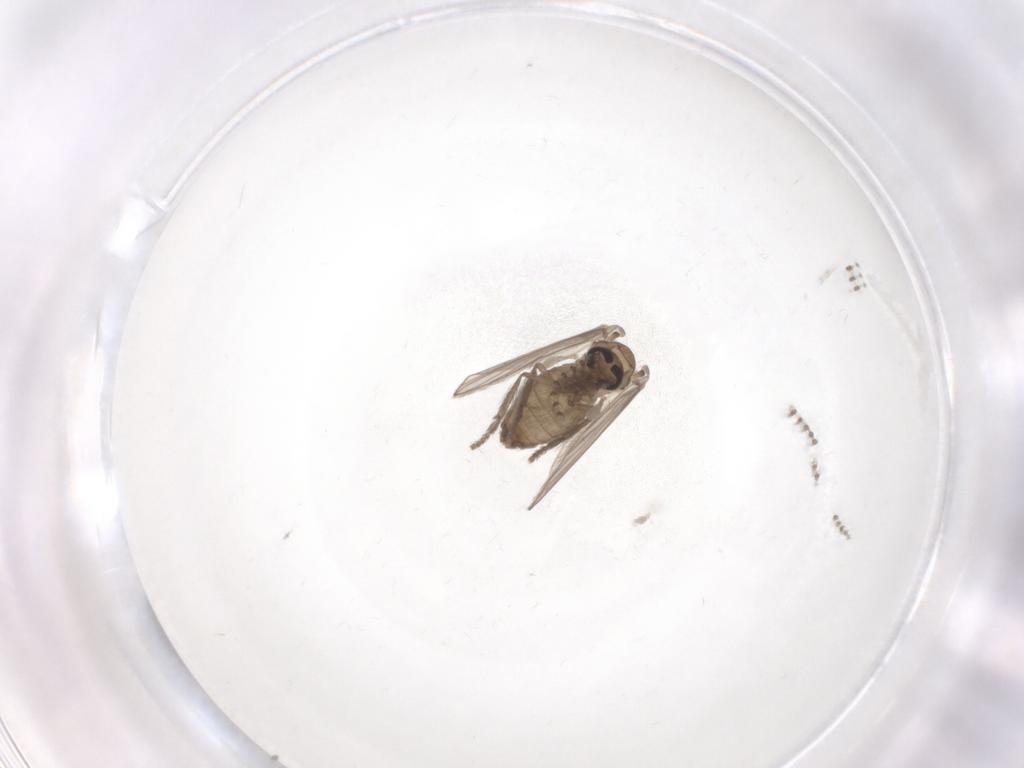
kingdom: Animalia
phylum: Arthropoda
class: Insecta
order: Diptera
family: Psychodidae
